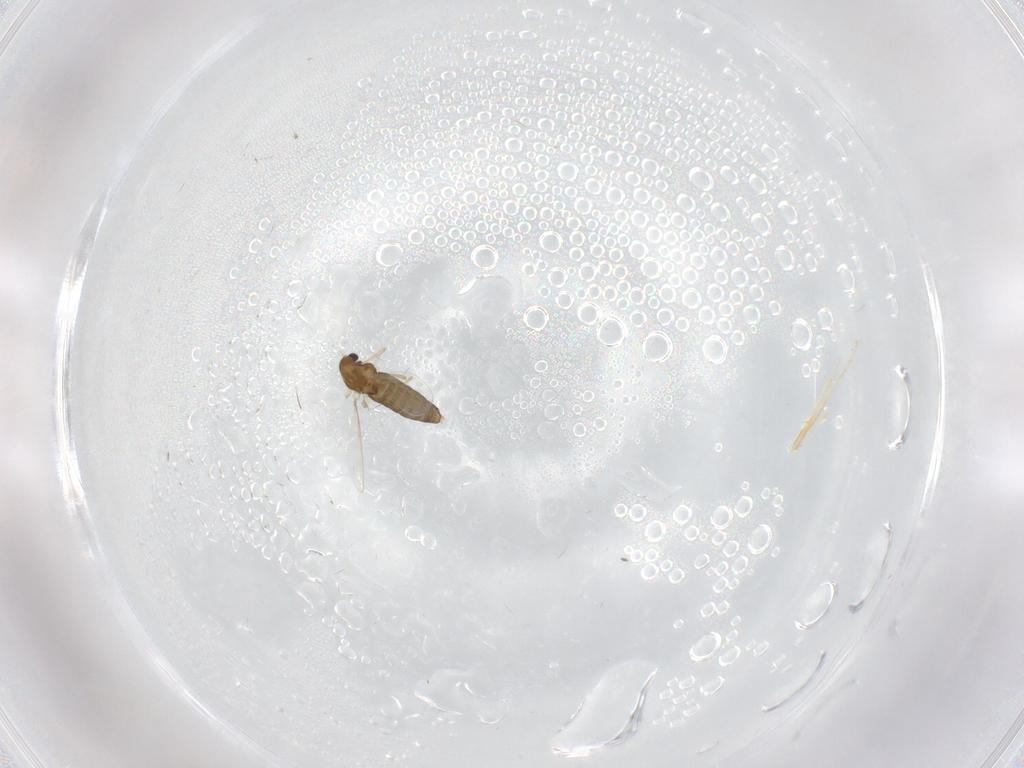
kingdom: Animalia
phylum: Arthropoda
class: Insecta
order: Diptera
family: Chironomidae
